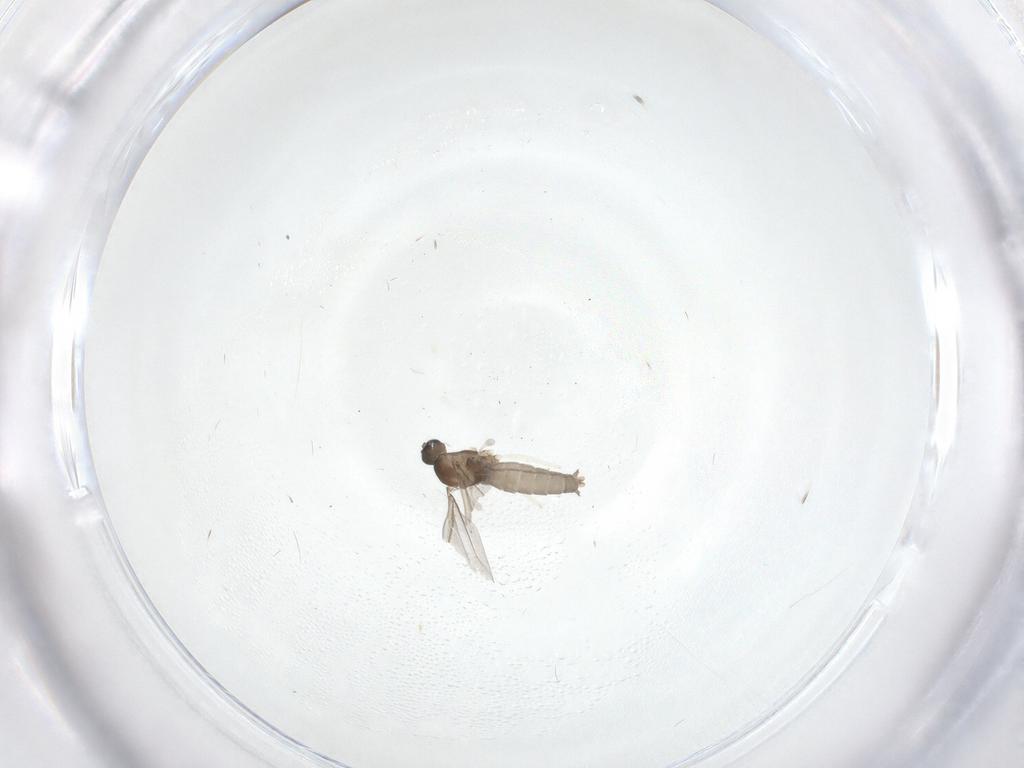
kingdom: Animalia
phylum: Arthropoda
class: Insecta
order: Diptera
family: Cecidomyiidae
